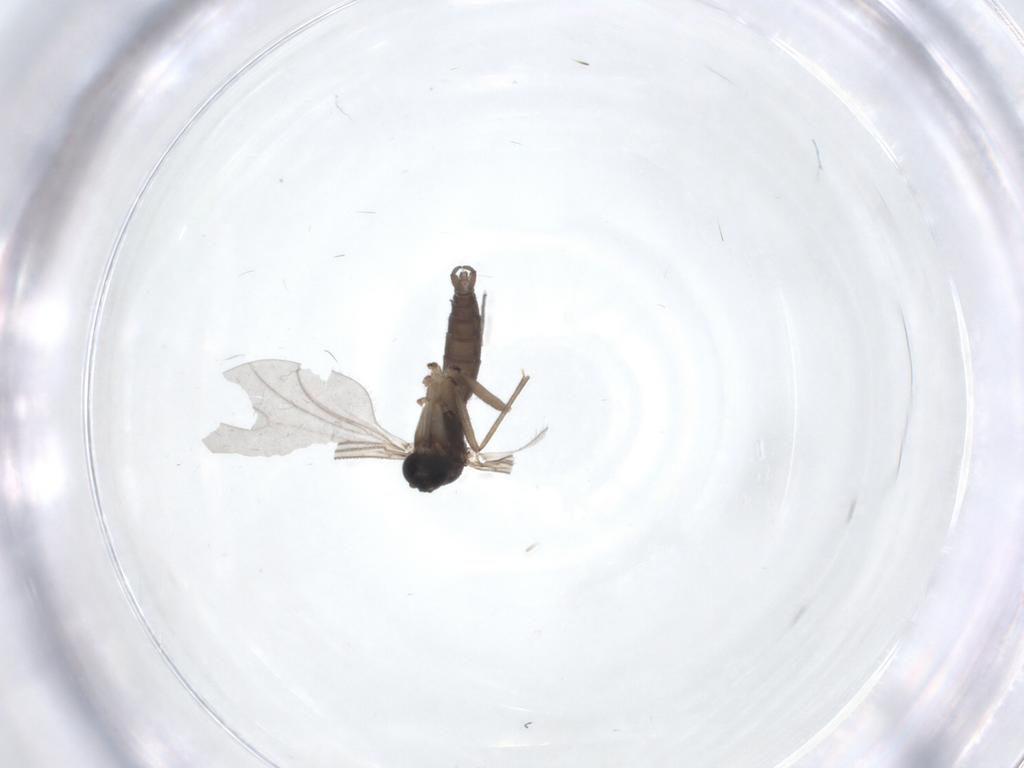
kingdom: Animalia
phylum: Arthropoda
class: Insecta
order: Diptera
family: Sciaridae
